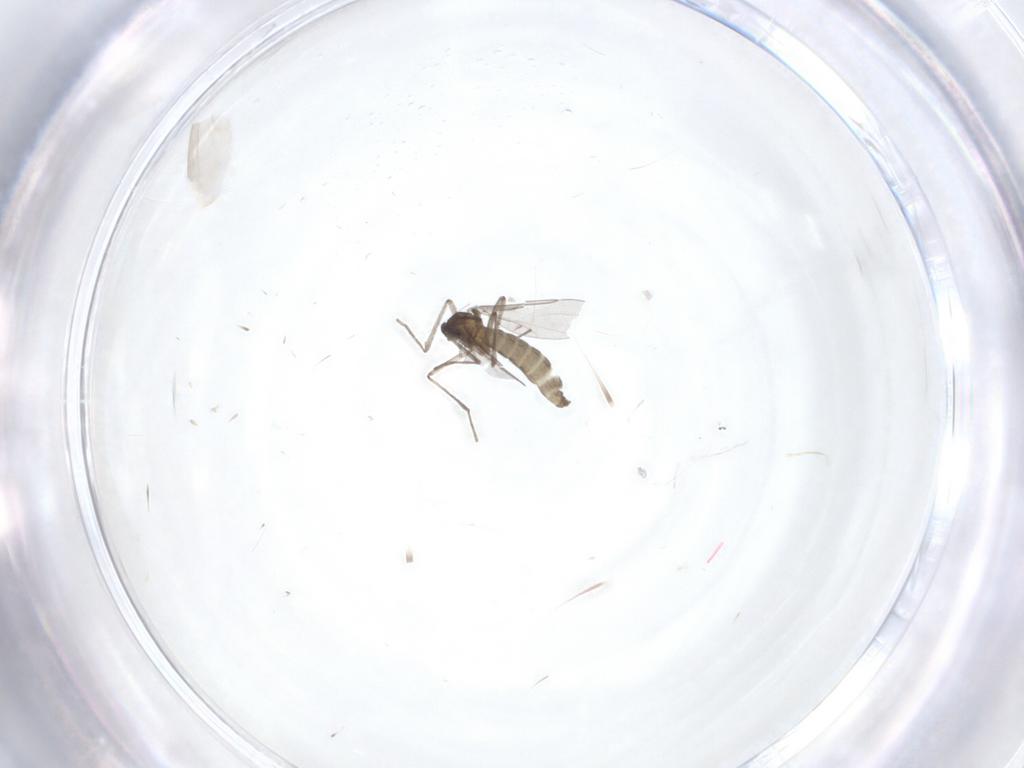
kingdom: Animalia
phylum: Arthropoda
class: Insecta
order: Diptera
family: Cecidomyiidae
